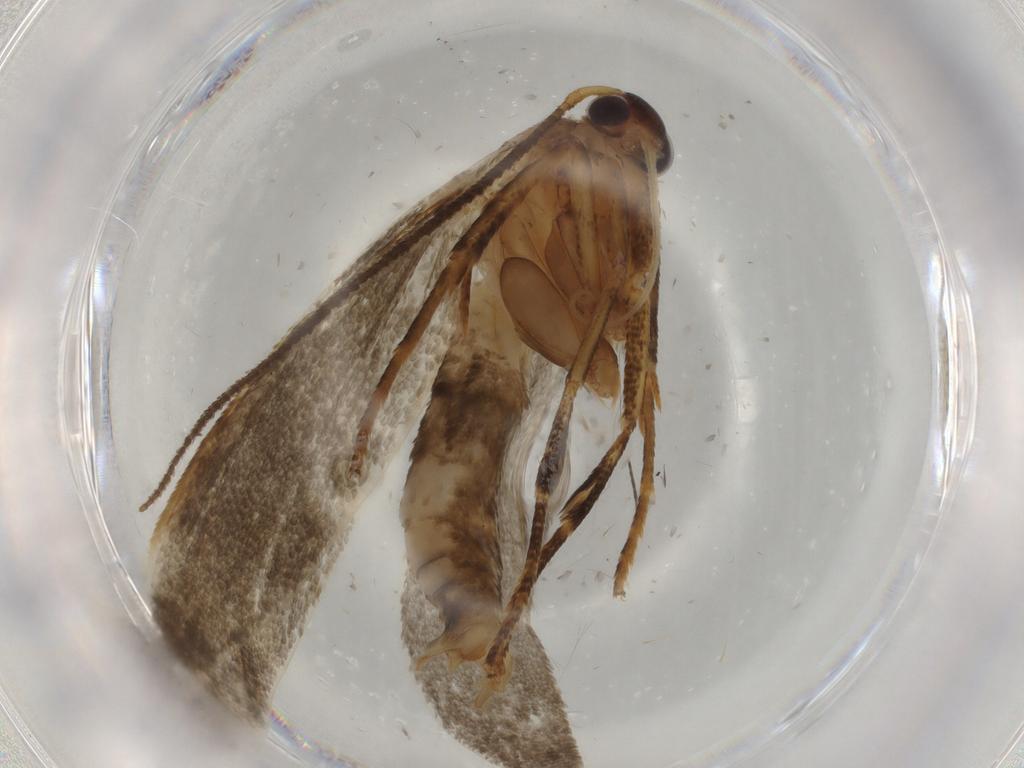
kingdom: Animalia
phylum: Arthropoda
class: Insecta
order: Lepidoptera
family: Blastobasidae
